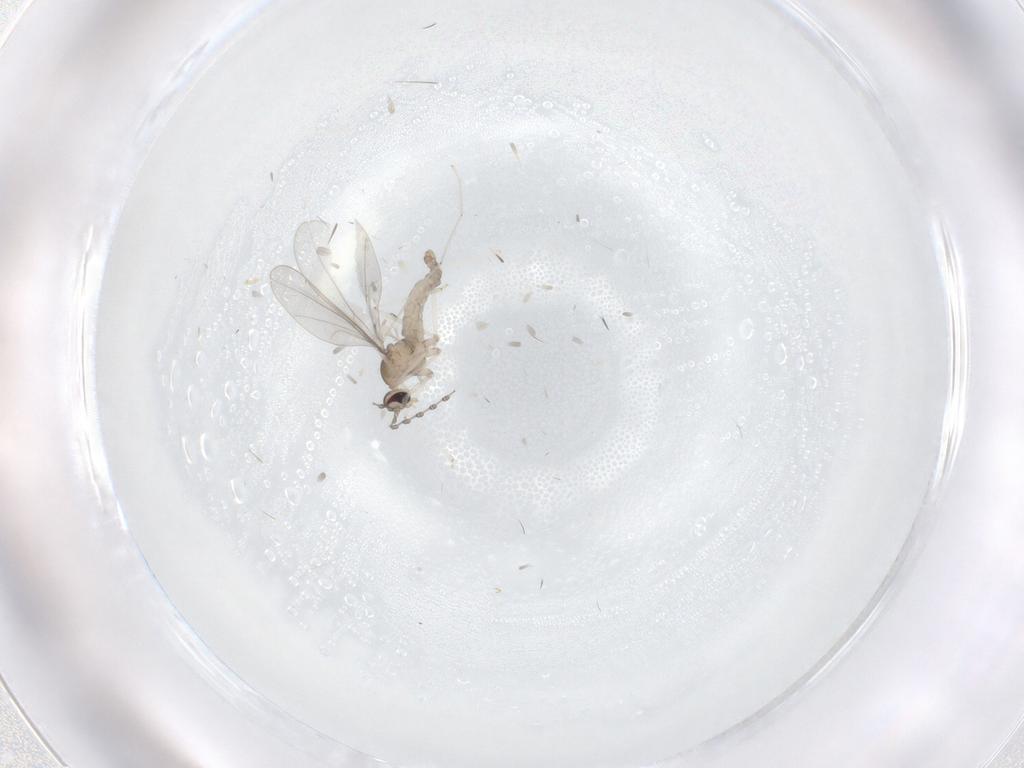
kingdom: Animalia
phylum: Arthropoda
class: Insecta
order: Diptera
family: Cecidomyiidae
